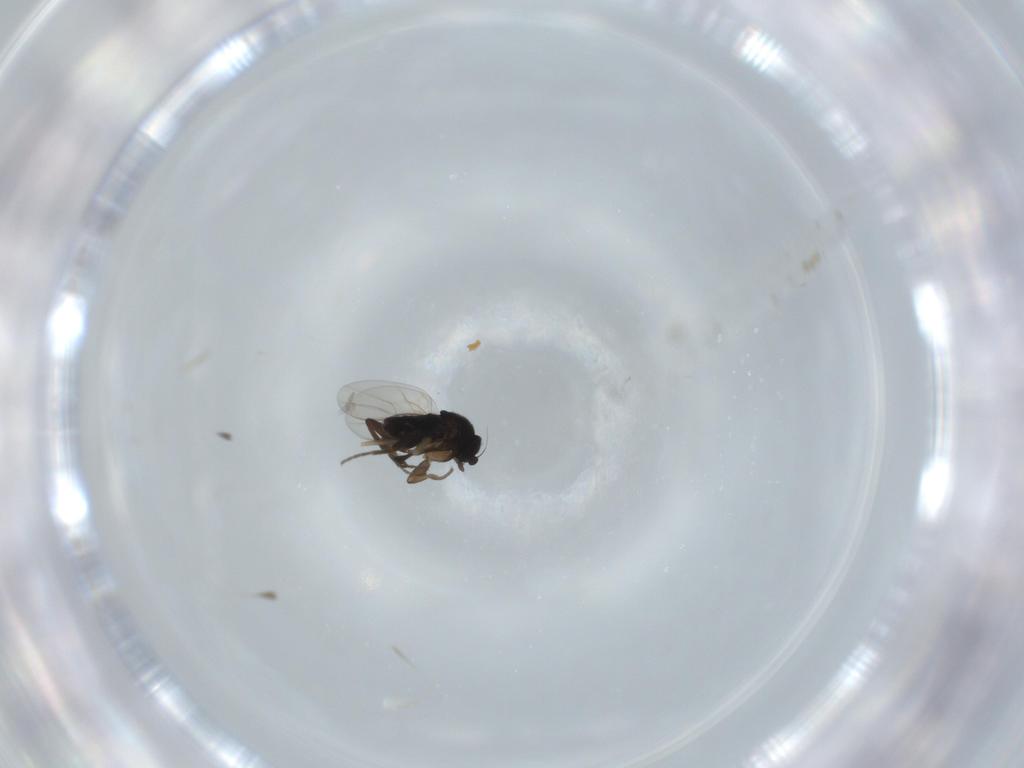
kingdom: Animalia
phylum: Arthropoda
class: Insecta
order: Diptera
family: Phoridae
